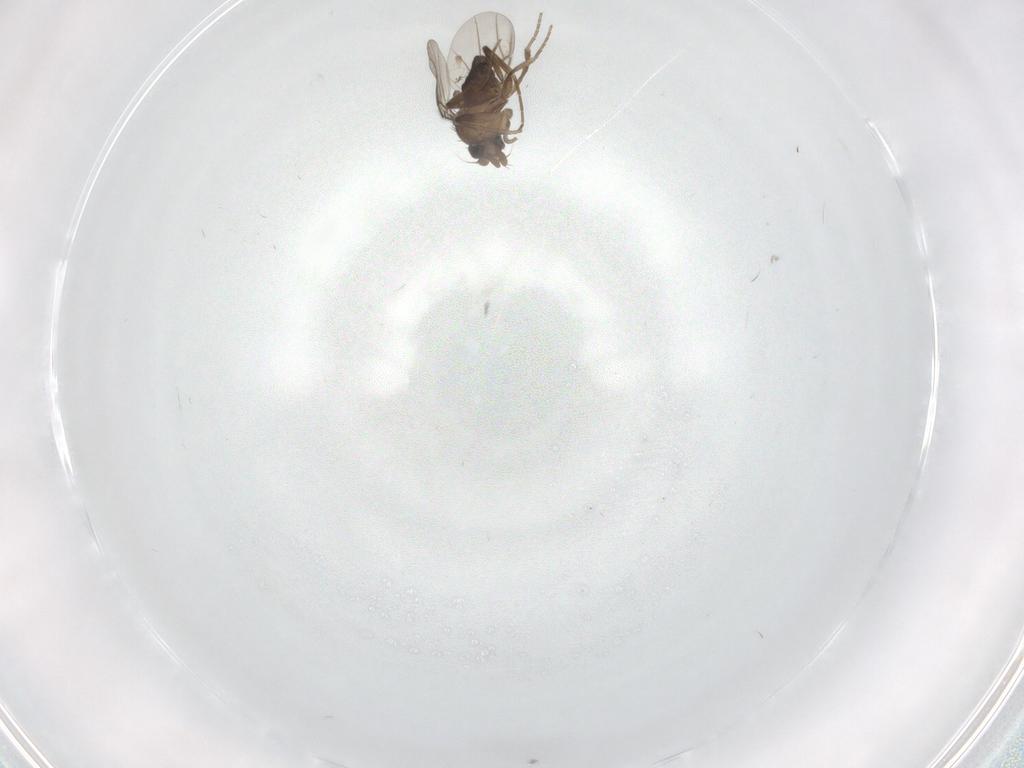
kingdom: Animalia
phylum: Arthropoda
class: Insecta
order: Diptera
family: Phoridae
